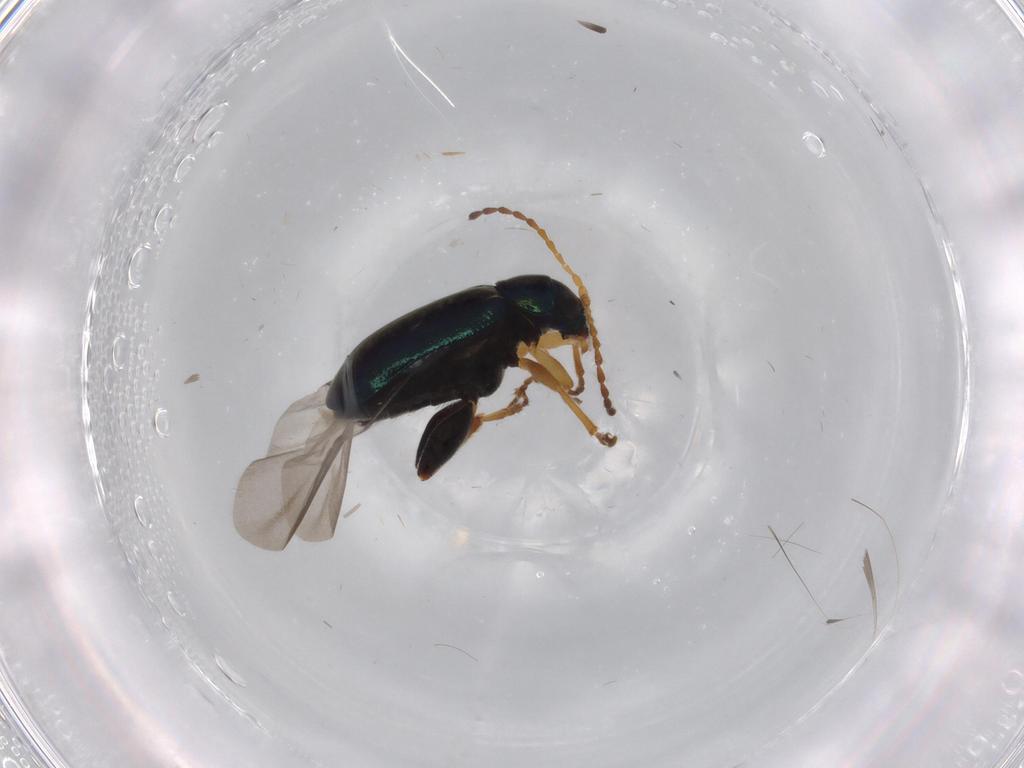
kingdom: Animalia
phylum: Arthropoda
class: Insecta
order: Coleoptera
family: Chrysomelidae
